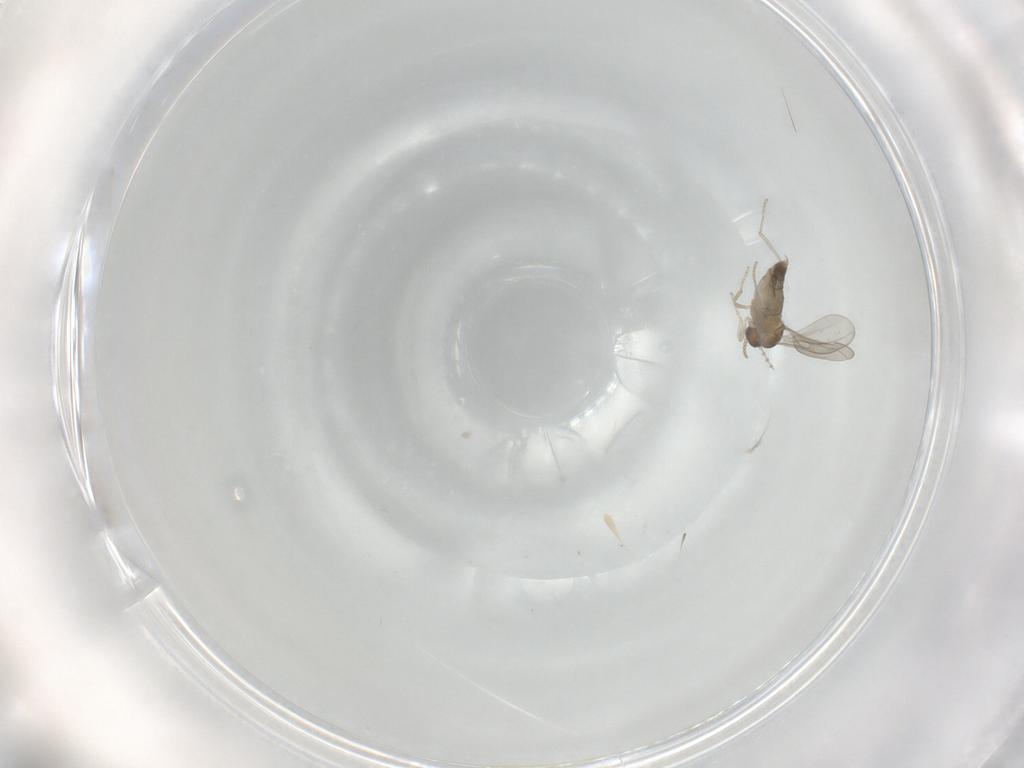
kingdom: Animalia
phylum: Arthropoda
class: Insecta
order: Diptera
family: Cecidomyiidae
